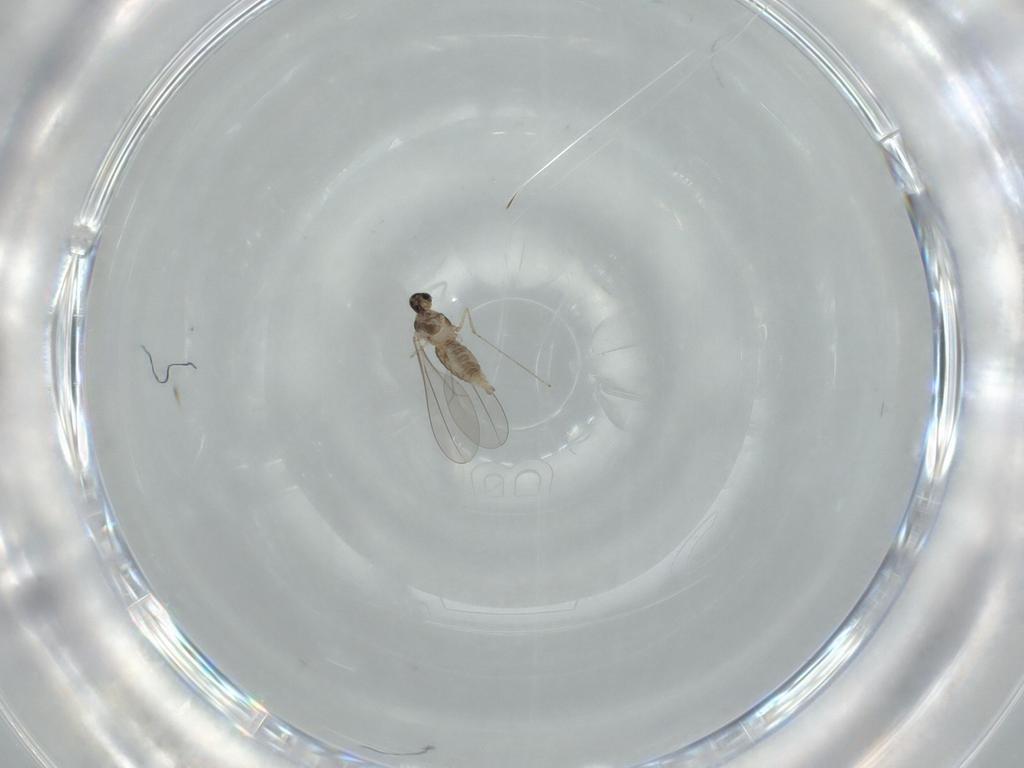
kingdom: Animalia
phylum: Arthropoda
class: Insecta
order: Diptera
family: Cecidomyiidae
